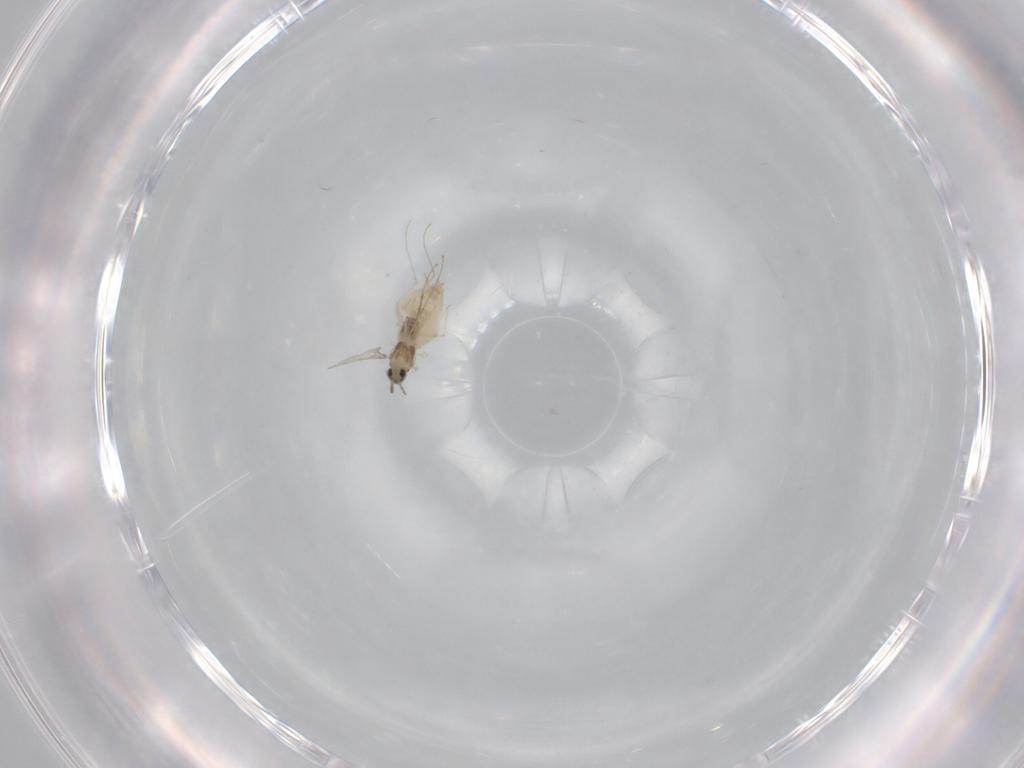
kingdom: Animalia
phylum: Arthropoda
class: Insecta
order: Diptera
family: Cecidomyiidae
